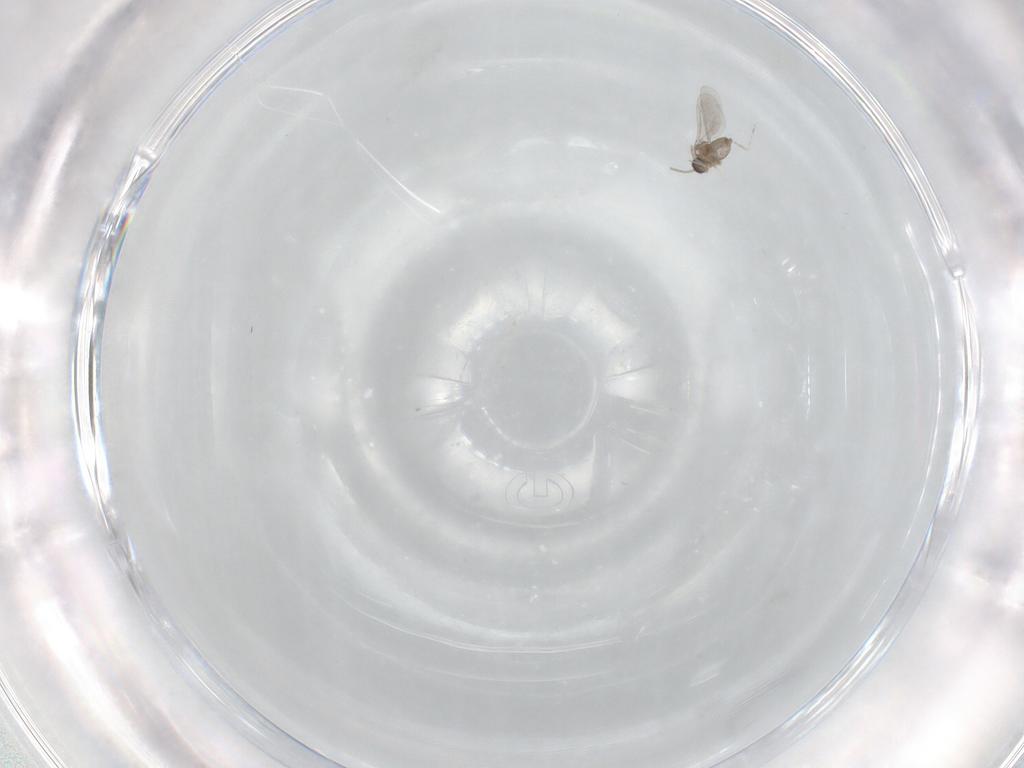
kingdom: Animalia
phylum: Arthropoda
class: Insecta
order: Diptera
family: Phoridae
